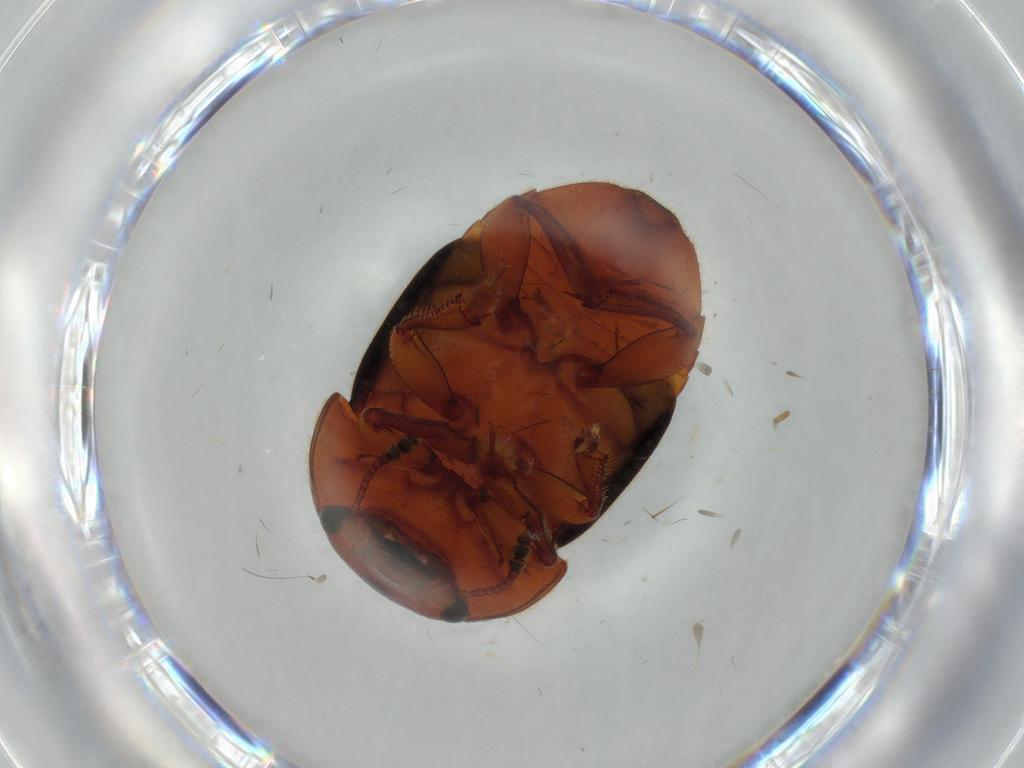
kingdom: Animalia
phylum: Arthropoda
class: Insecta
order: Coleoptera
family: Nitidulidae
